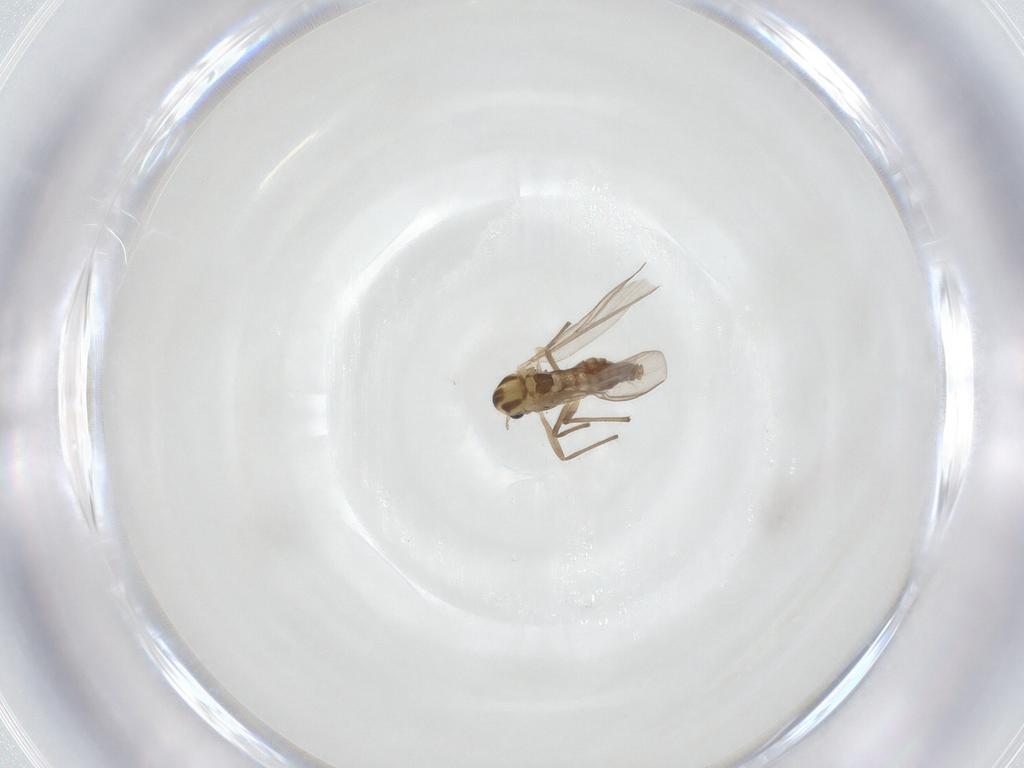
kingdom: Animalia
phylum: Arthropoda
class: Insecta
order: Diptera
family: Chironomidae
